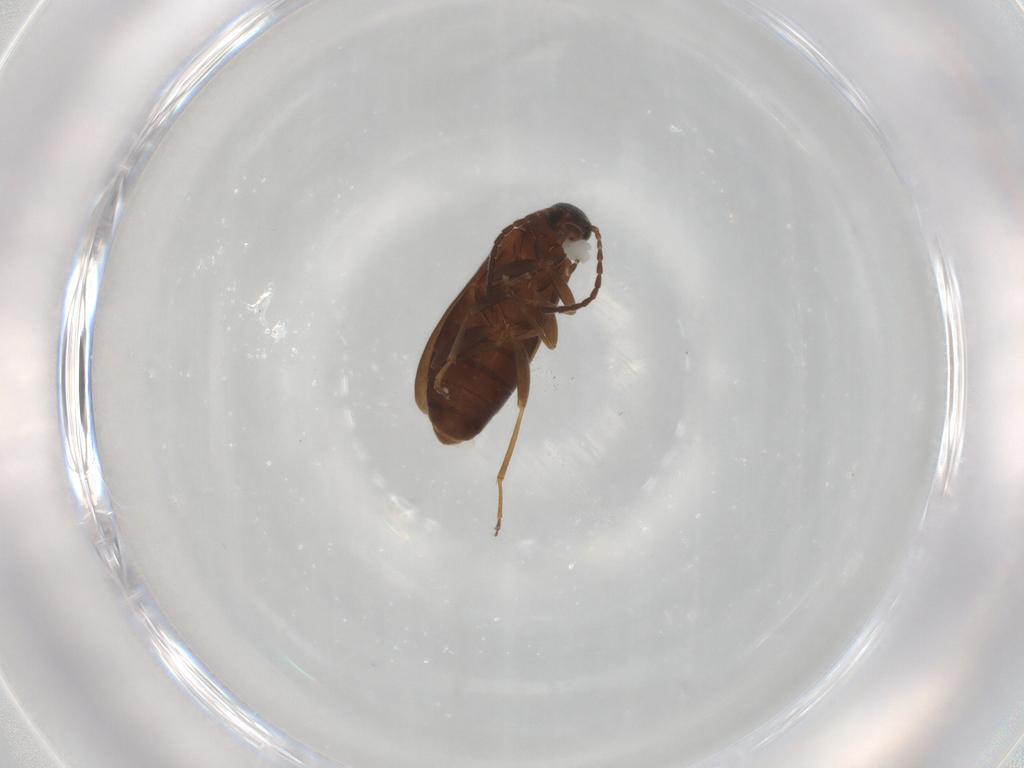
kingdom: Animalia
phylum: Arthropoda
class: Insecta
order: Coleoptera
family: Scraptiidae
